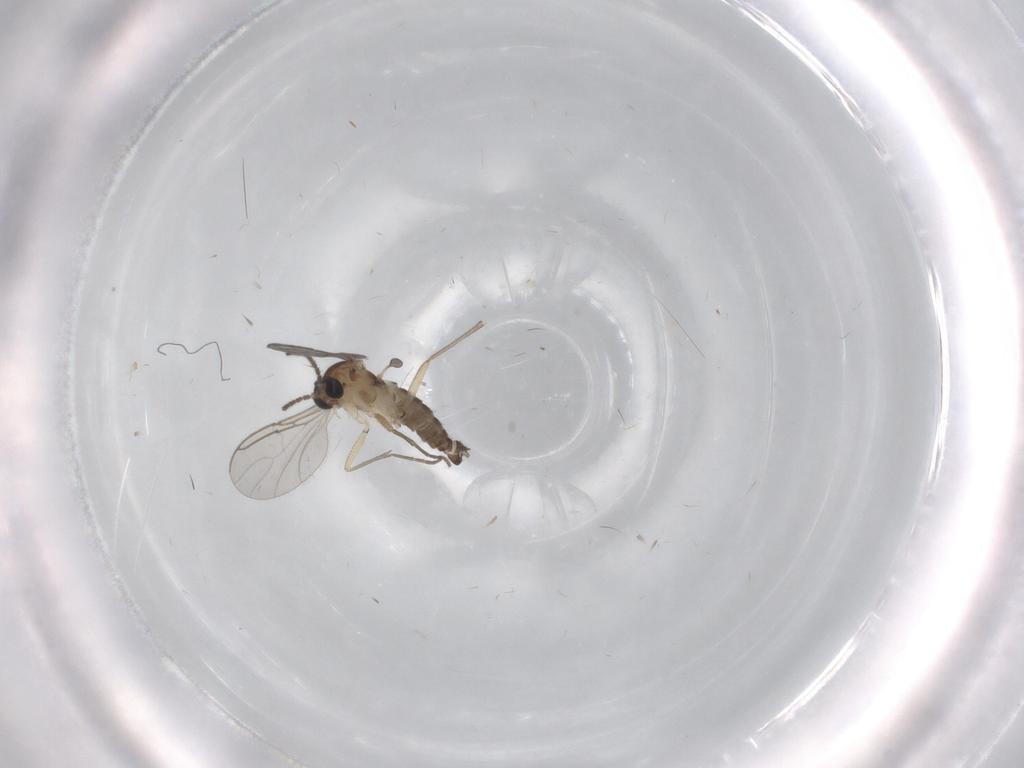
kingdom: Animalia
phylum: Arthropoda
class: Insecta
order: Diptera
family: Sciaridae
